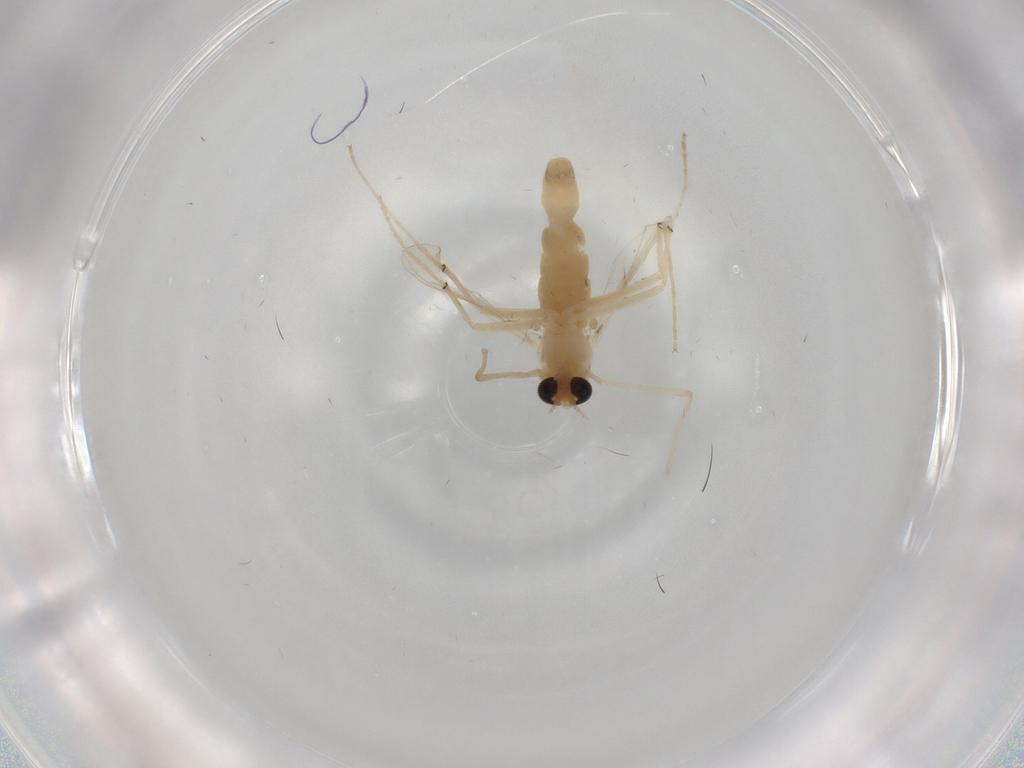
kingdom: Animalia
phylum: Arthropoda
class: Insecta
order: Diptera
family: Chironomidae
